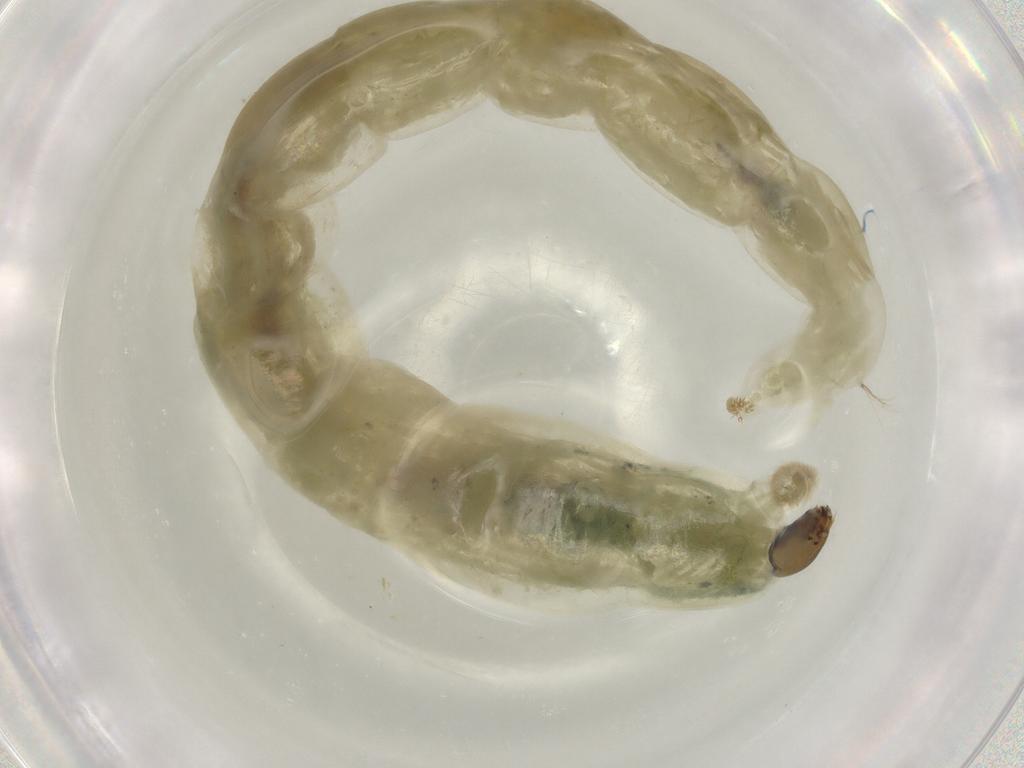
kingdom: Animalia
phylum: Arthropoda
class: Insecta
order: Diptera
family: Chironomidae
